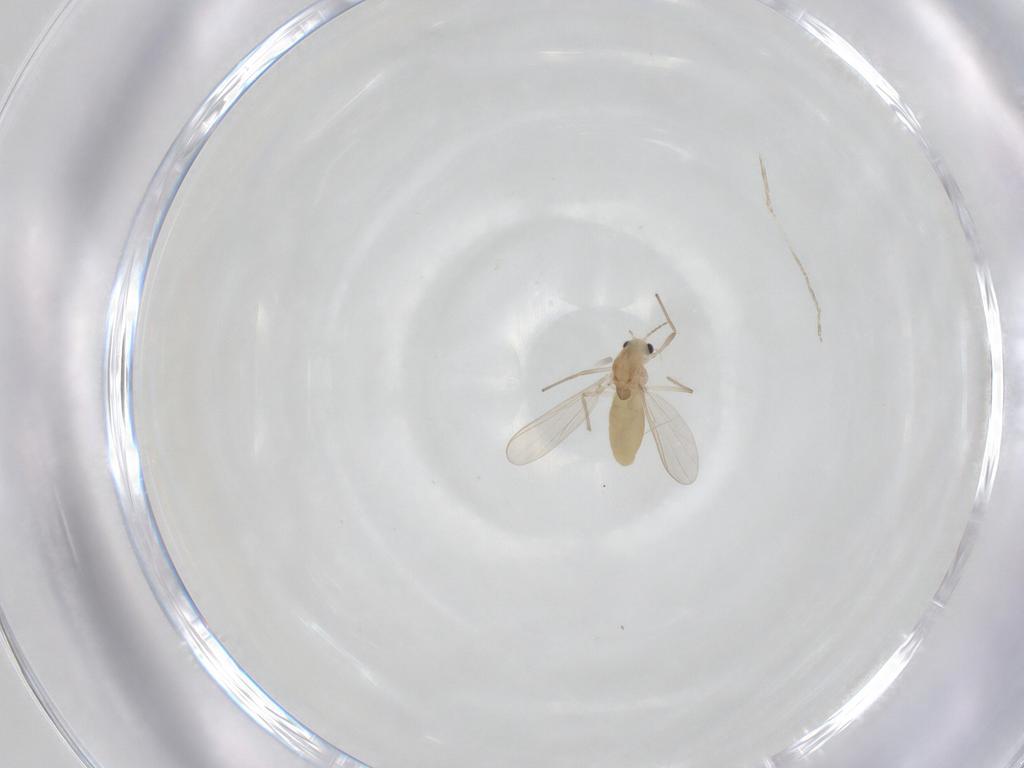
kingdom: Animalia
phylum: Arthropoda
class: Insecta
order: Diptera
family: Chironomidae
